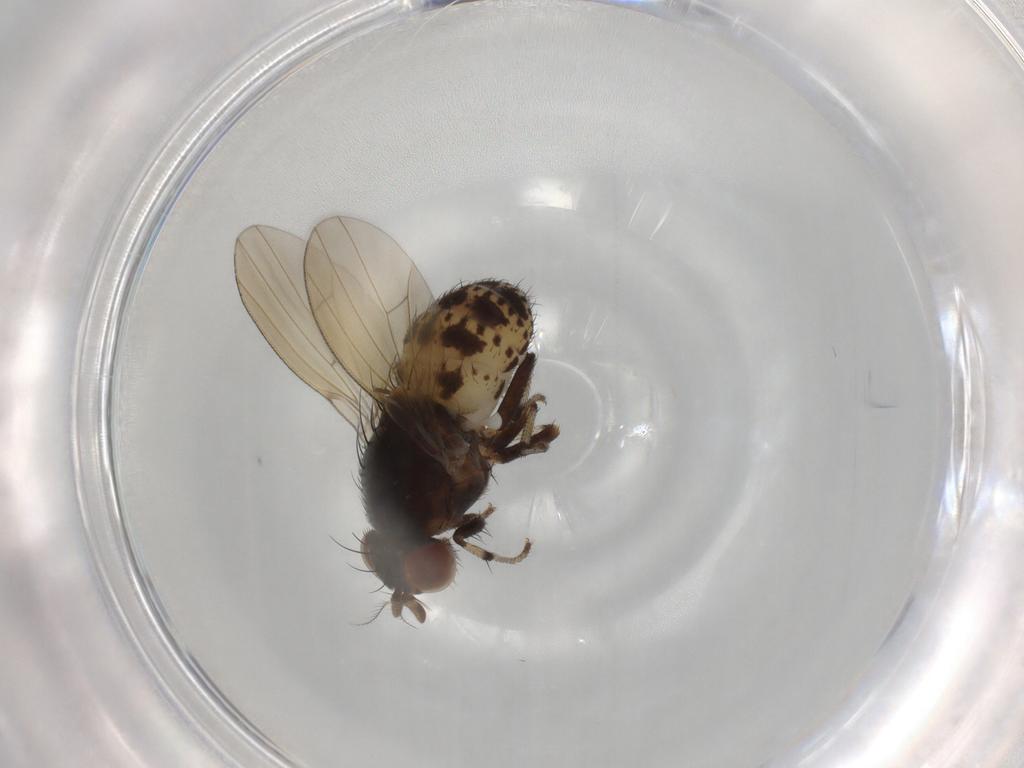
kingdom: Animalia
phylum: Arthropoda
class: Insecta
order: Diptera
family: Milichiidae
